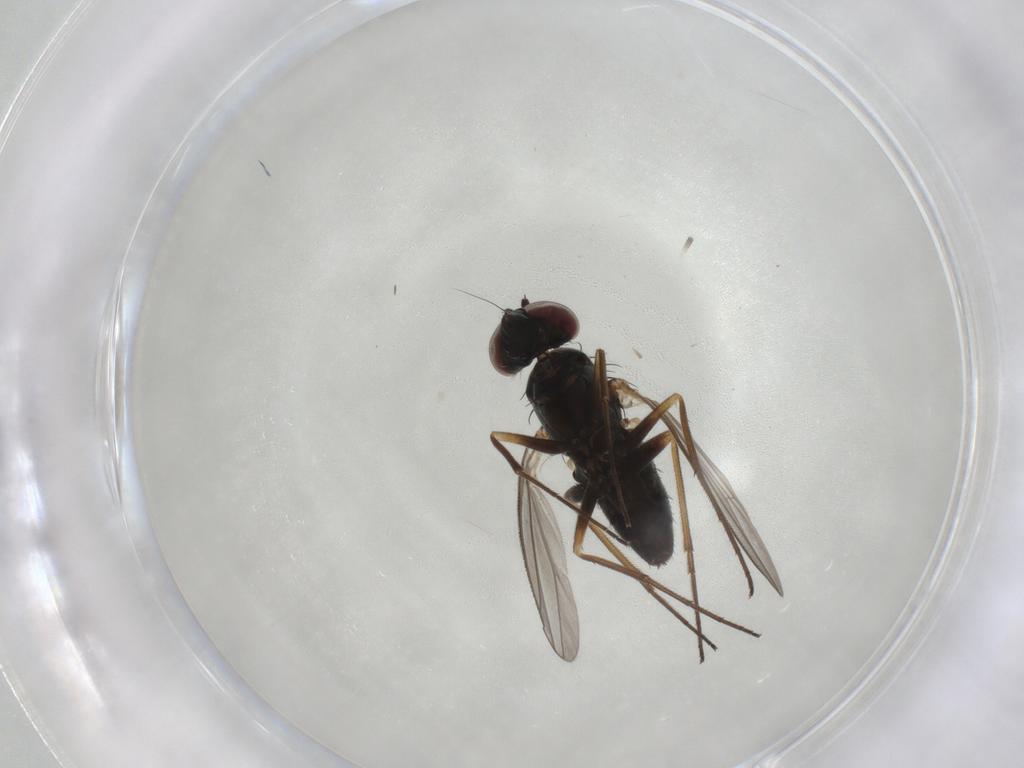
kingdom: Animalia
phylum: Arthropoda
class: Insecta
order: Diptera
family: Dolichopodidae
